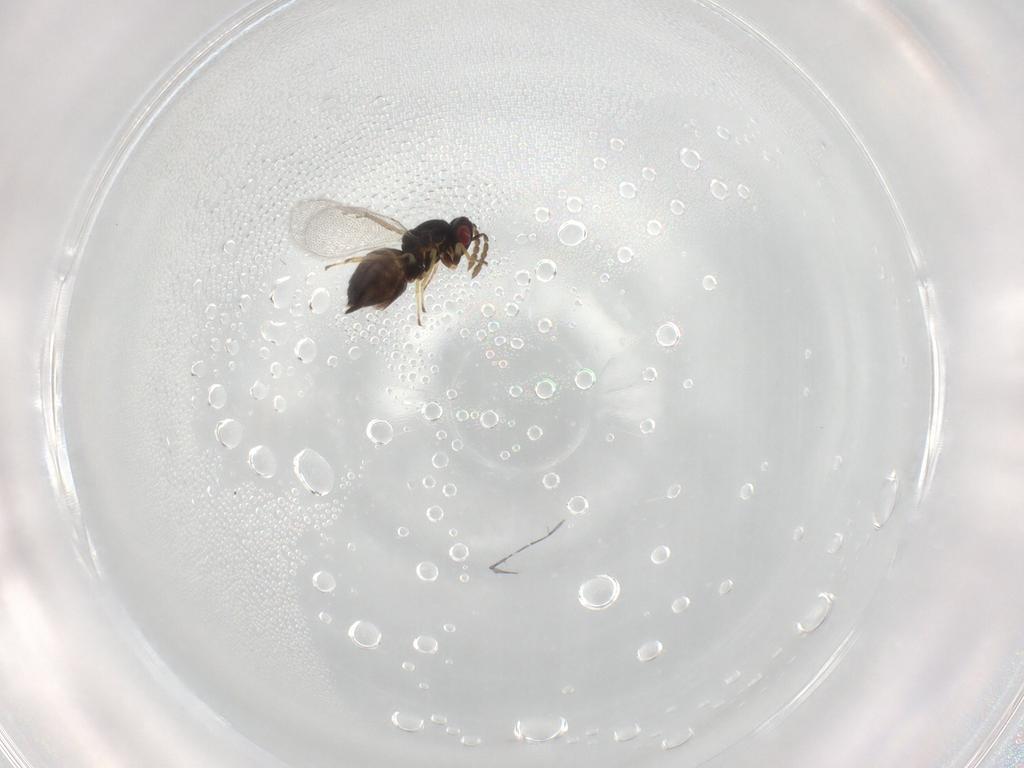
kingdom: Animalia
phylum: Arthropoda
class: Insecta
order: Hymenoptera
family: Eulophidae
